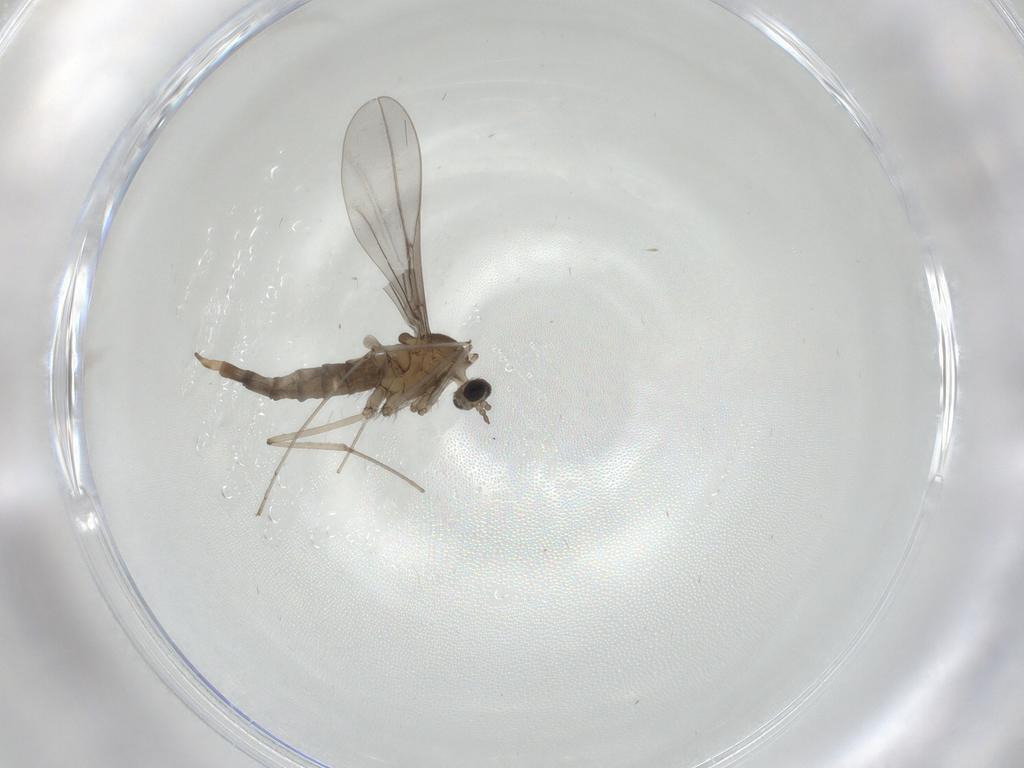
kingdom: Animalia
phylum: Arthropoda
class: Insecta
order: Diptera
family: Cecidomyiidae
